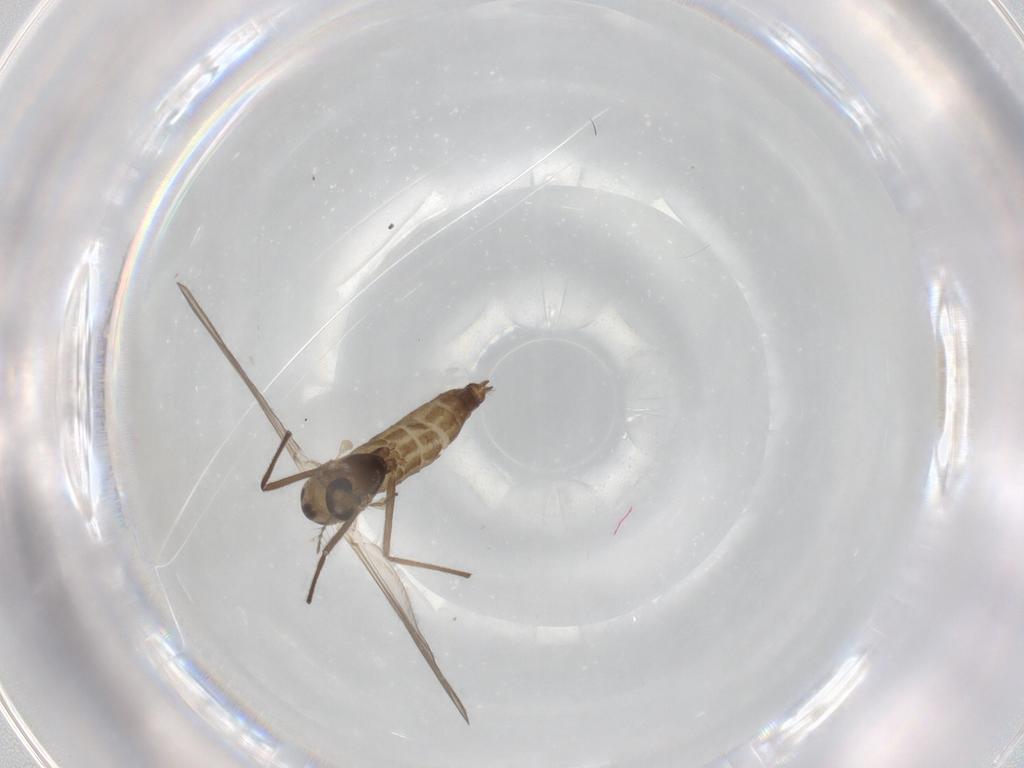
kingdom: Animalia
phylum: Arthropoda
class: Insecta
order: Diptera
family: Chironomidae
